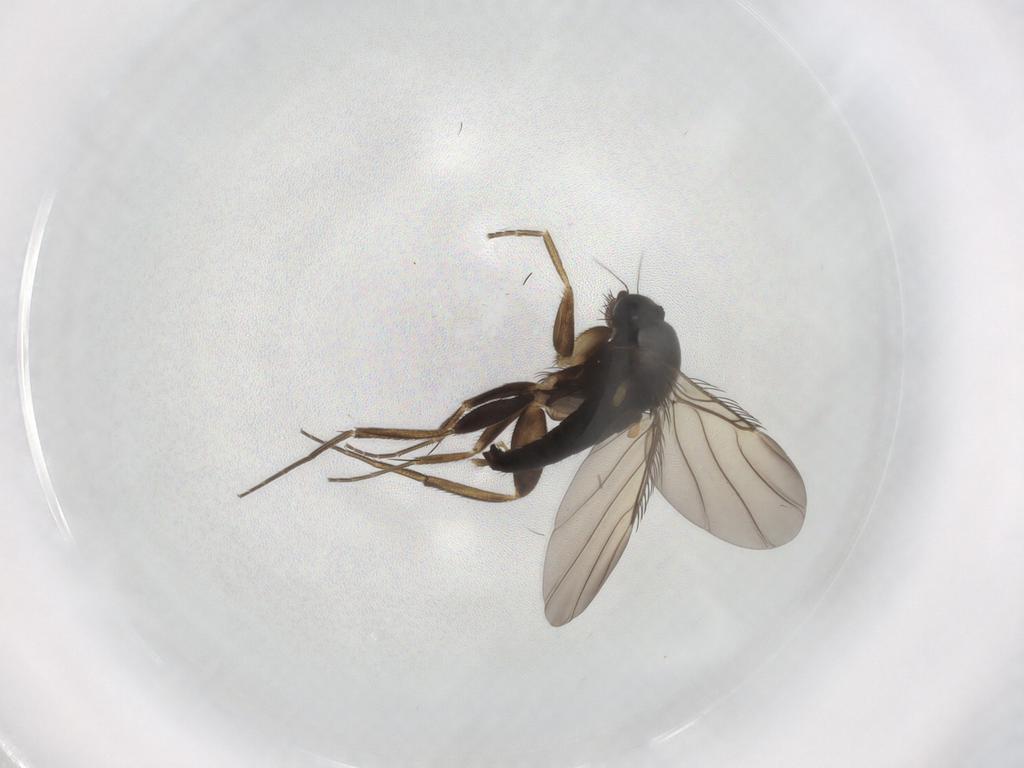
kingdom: Animalia
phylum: Arthropoda
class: Insecta
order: Diptera
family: Phoridae
